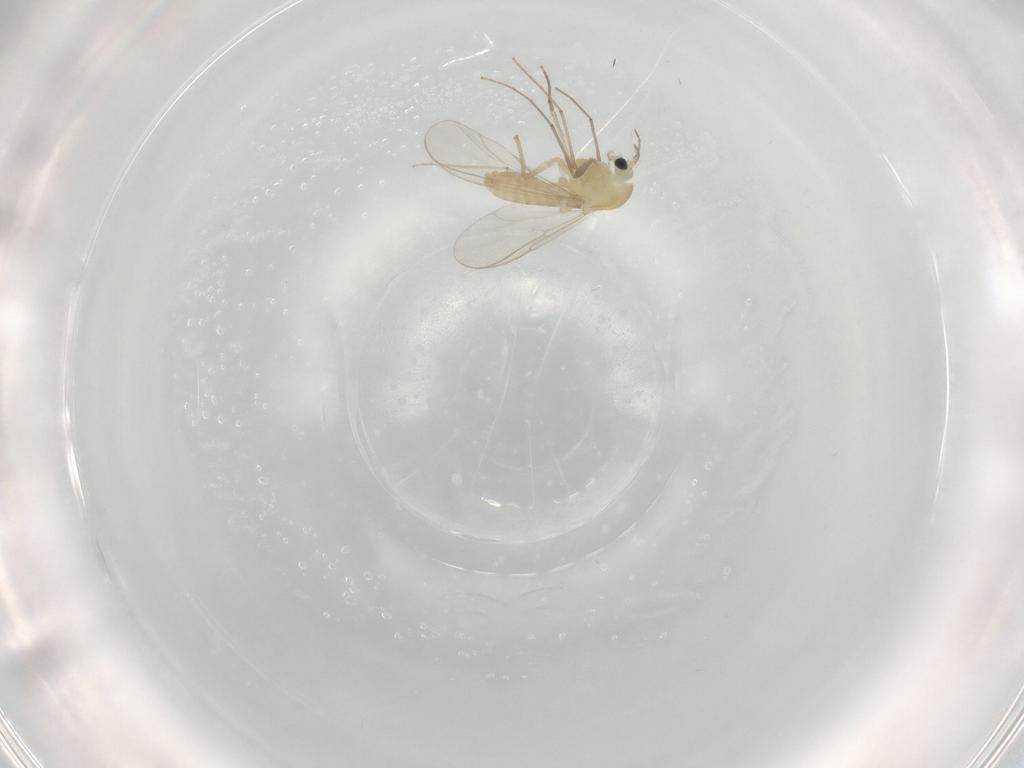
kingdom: Animalia
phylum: Arthropoda
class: Insecta
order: Diptera
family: Chironomidae
